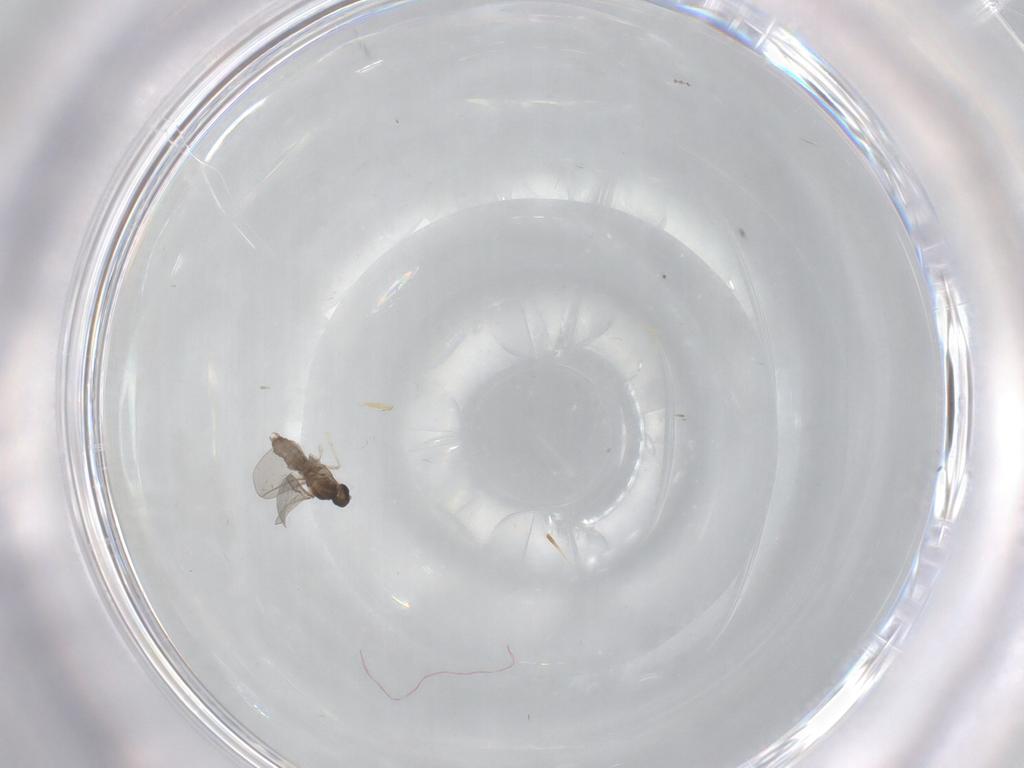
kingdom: Animalia
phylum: Arthropoda
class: Insecta
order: Diptera
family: Cecidomyiidae
